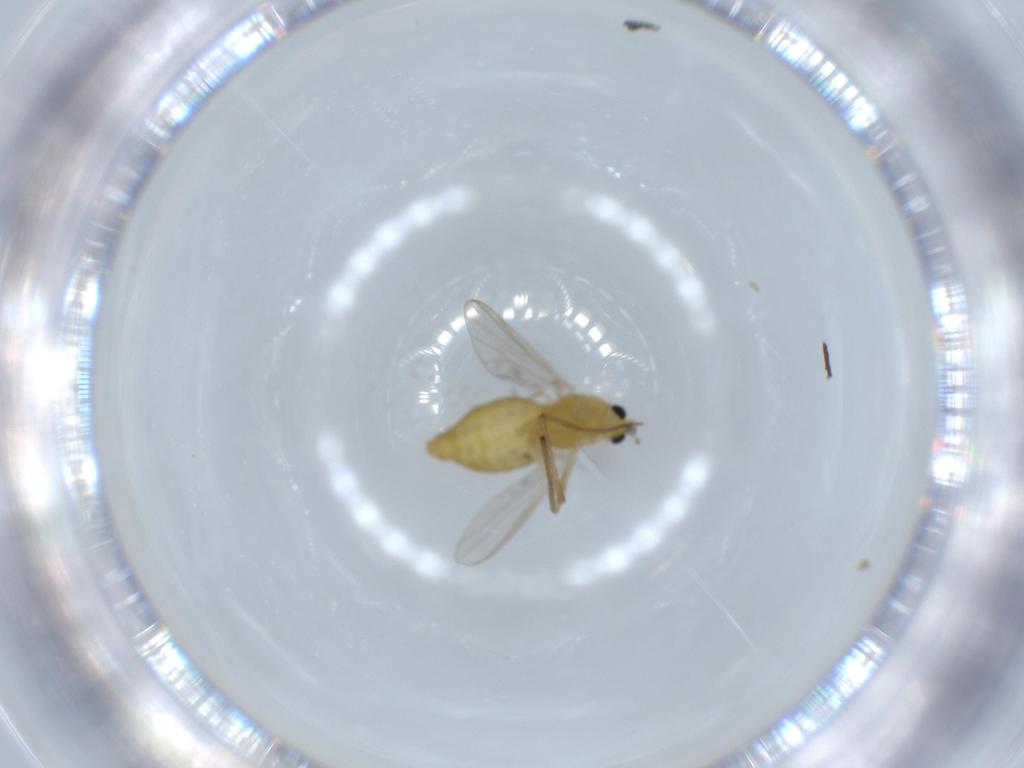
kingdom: Animalia
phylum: Arthropoda
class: Insecta
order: Diptera
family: Chironomidae
